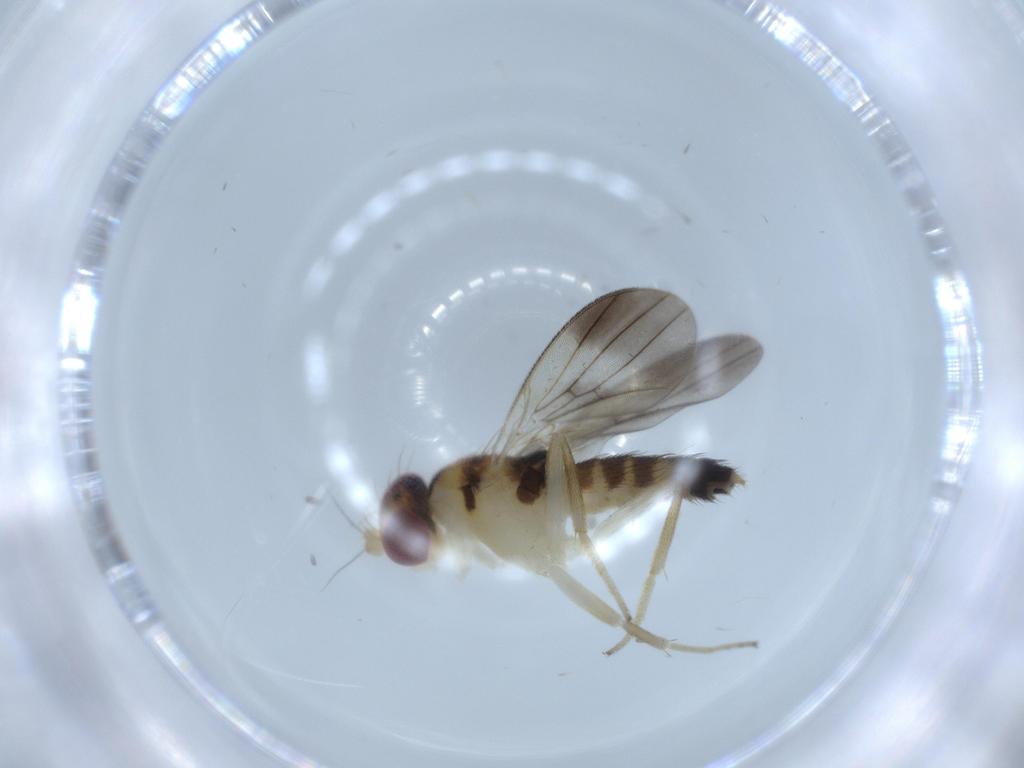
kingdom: Animalia
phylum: Arthropoda
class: Insecta
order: Diptera
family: Clusiidae
